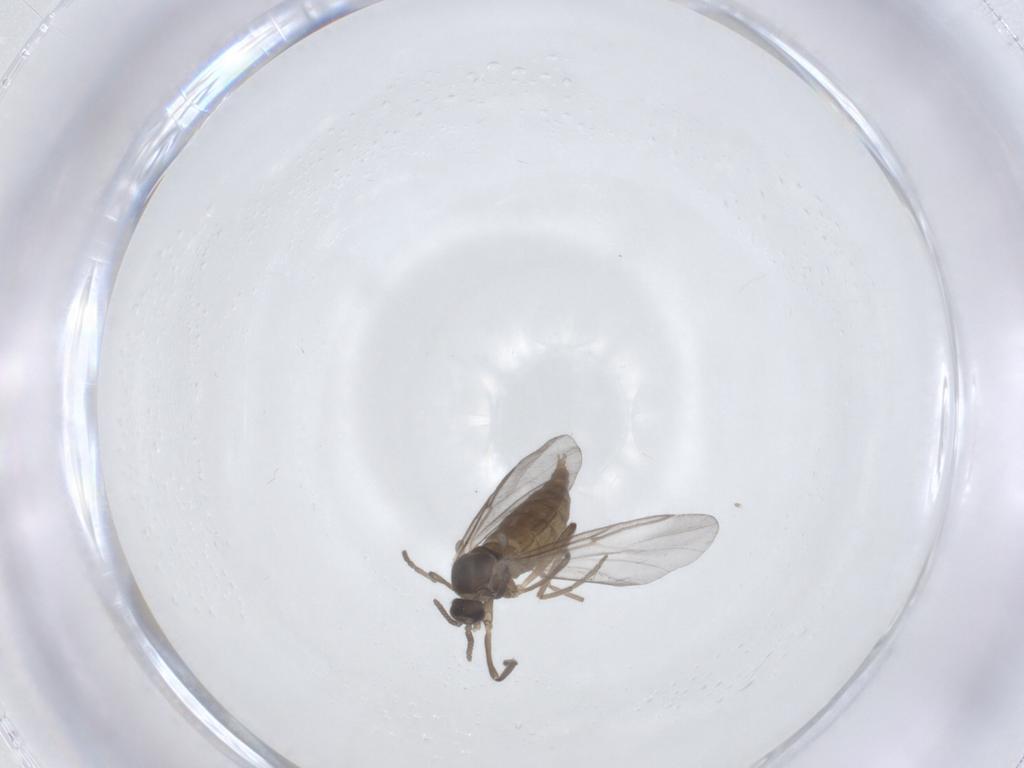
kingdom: Animalia
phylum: Arthropoda
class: Insecta
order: Diptera
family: Cecidomyiidae
